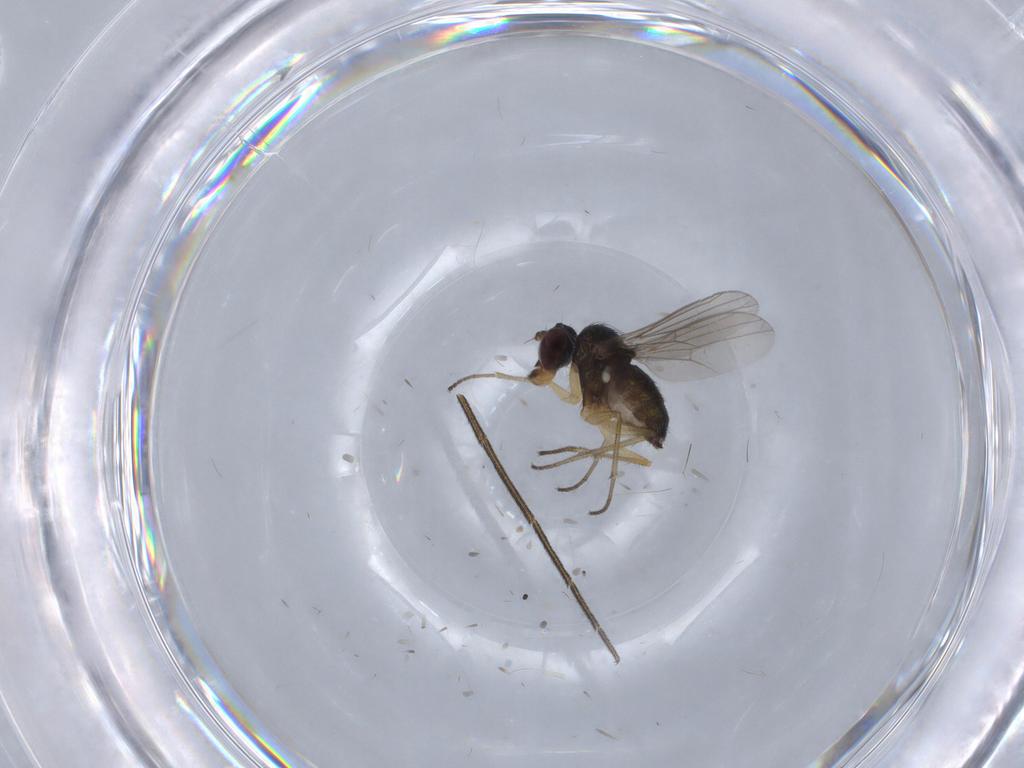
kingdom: Animalia
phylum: Arthropoda
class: Insecta
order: Diptera
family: Dolichopodidae
